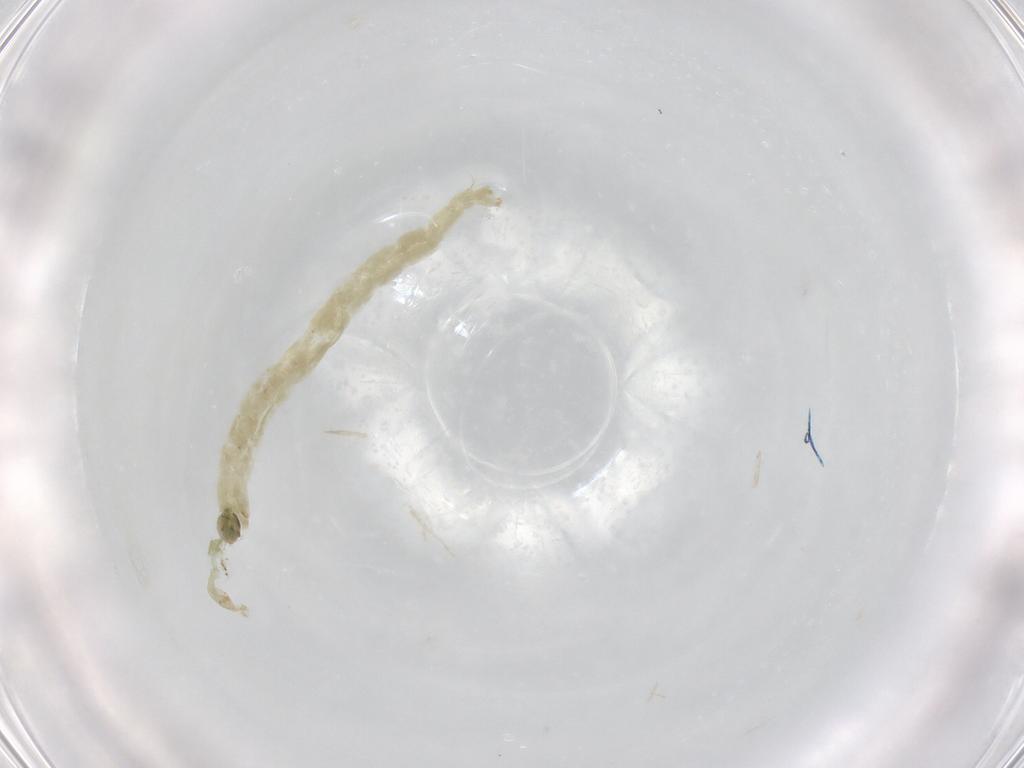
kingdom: Animalia
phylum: Arthropoda
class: Insecta
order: Diptera
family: Chironomidae
